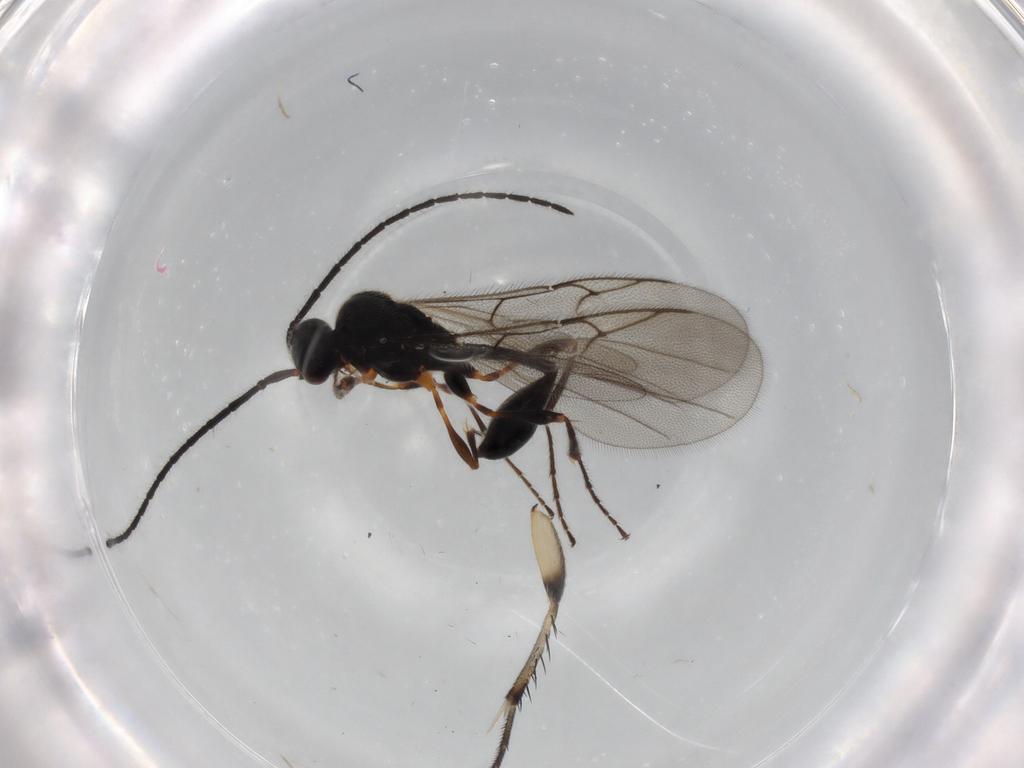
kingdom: Animalia
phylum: Arthropoda
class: Insecta
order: Hymenoptera
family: Diapriidae
